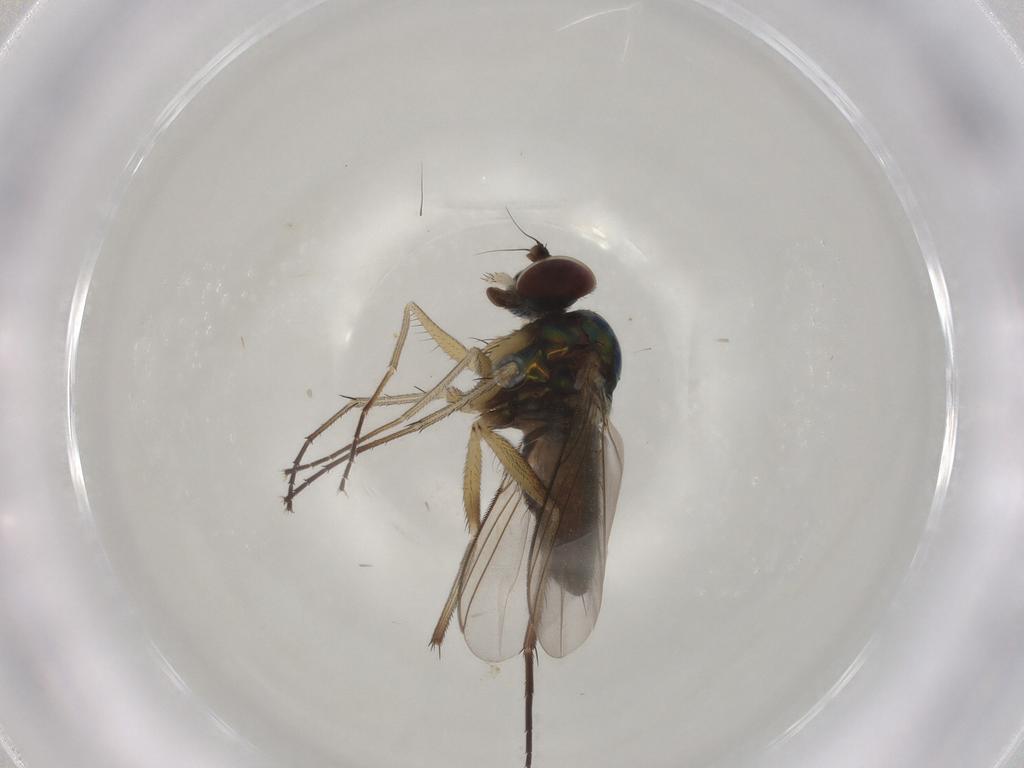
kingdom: Animalia
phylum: Arthropoda
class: Insecta
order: Diptera
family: Dolichopodidae
